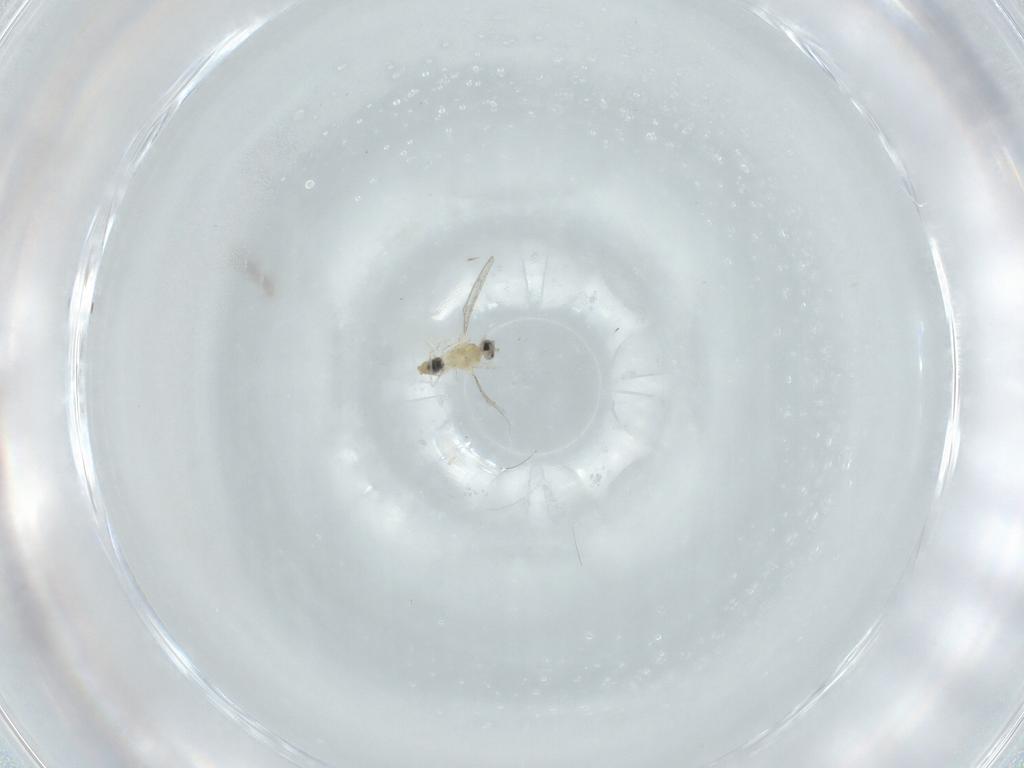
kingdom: Animalia
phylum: Arthropoda
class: Insecta
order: Diptera
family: Cecidomyiidae
